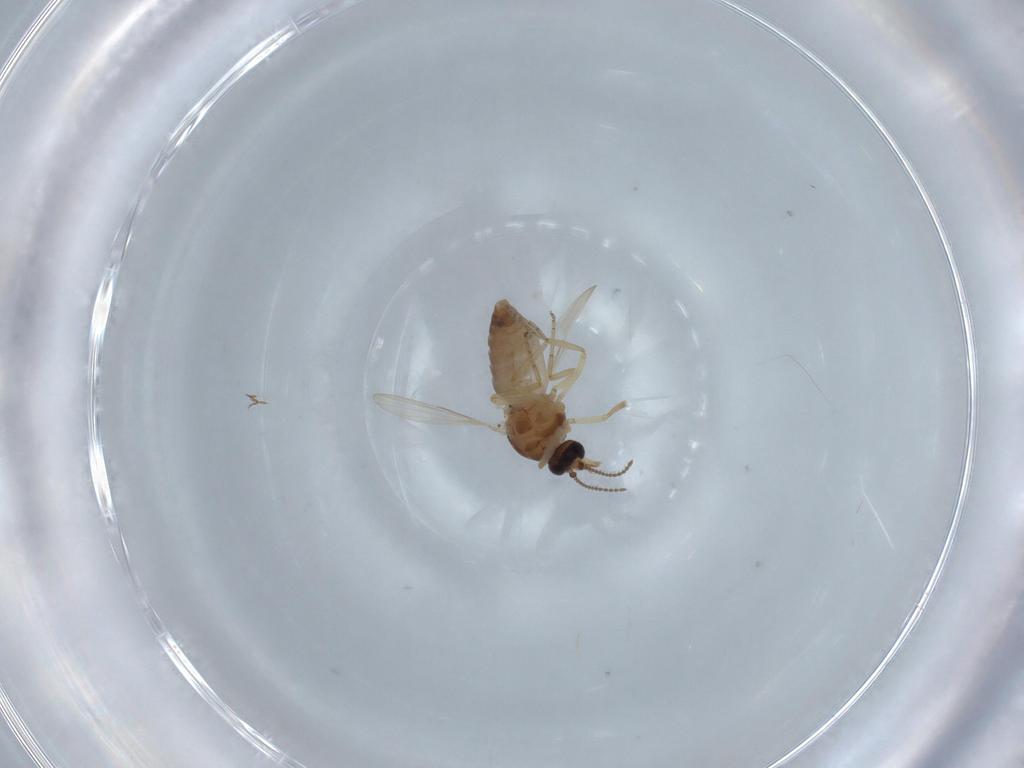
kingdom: Animalia
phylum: Arthropoda
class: Insecta
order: Diptera
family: Ceratopogonidae
